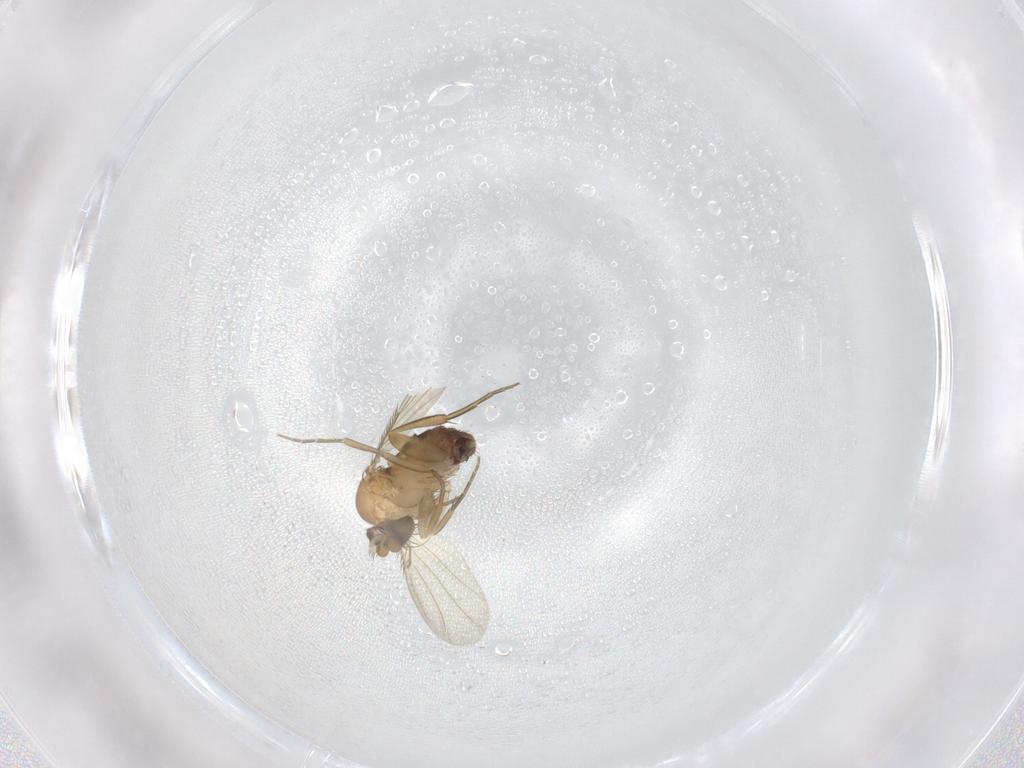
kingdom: Animalia
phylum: Arthropoda
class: Insecta
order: Diptera
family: Phoridae
